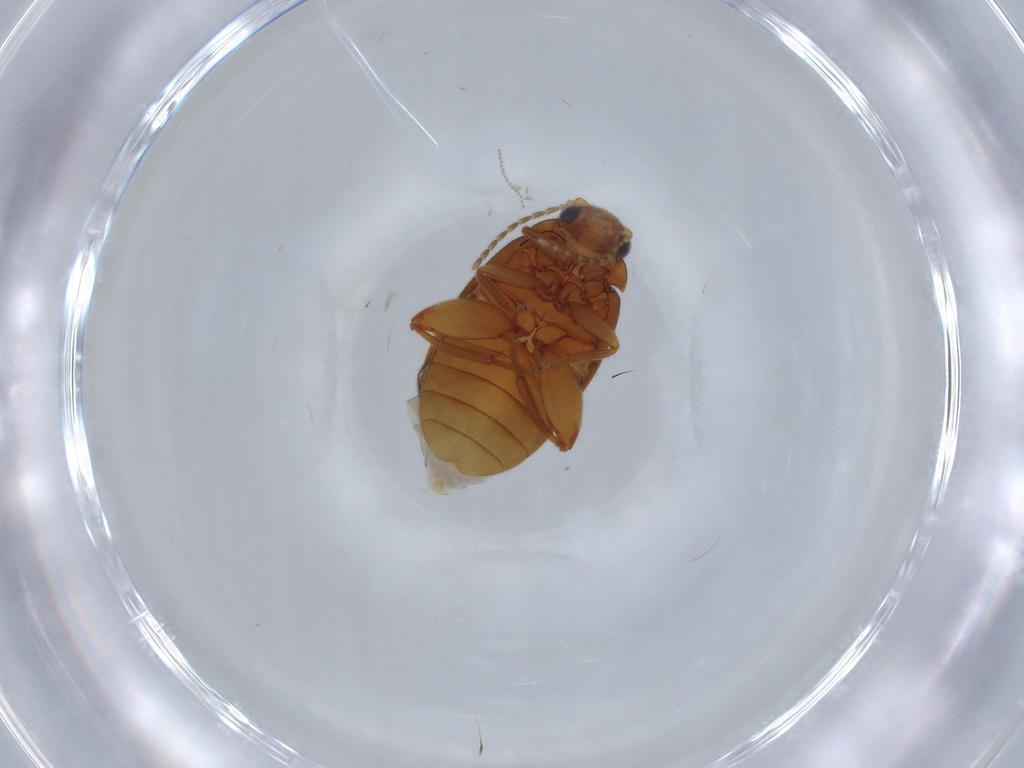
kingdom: Animalia
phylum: Arthropoda
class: Insecta
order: Coleoptera
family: Scirtidae
